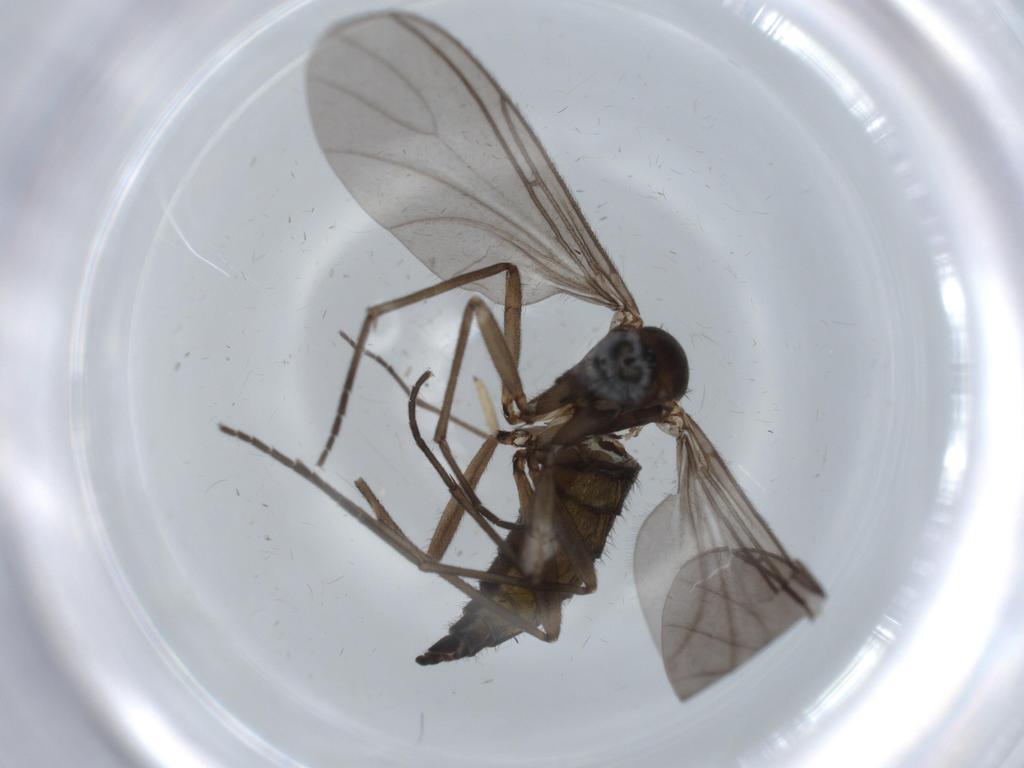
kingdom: Animalia
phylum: Arthropoda
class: Insecta
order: Diptera
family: Sciaridae
